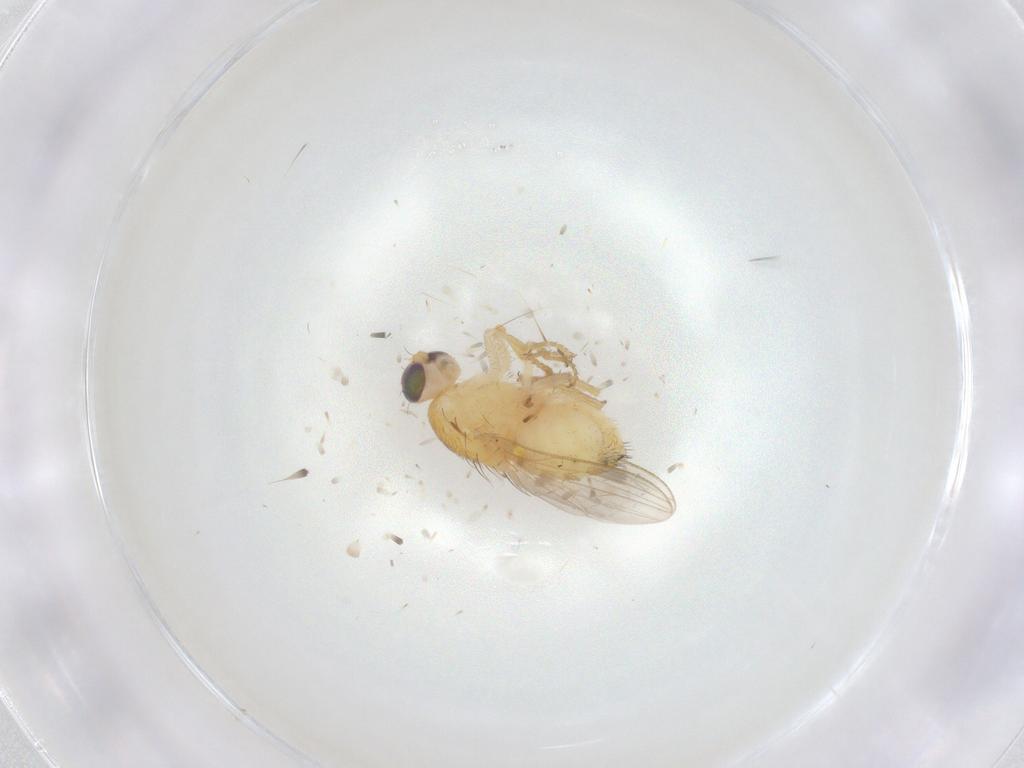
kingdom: Animalia
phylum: Arthropoda
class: Insecta
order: Diptera
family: Chyromyidae
